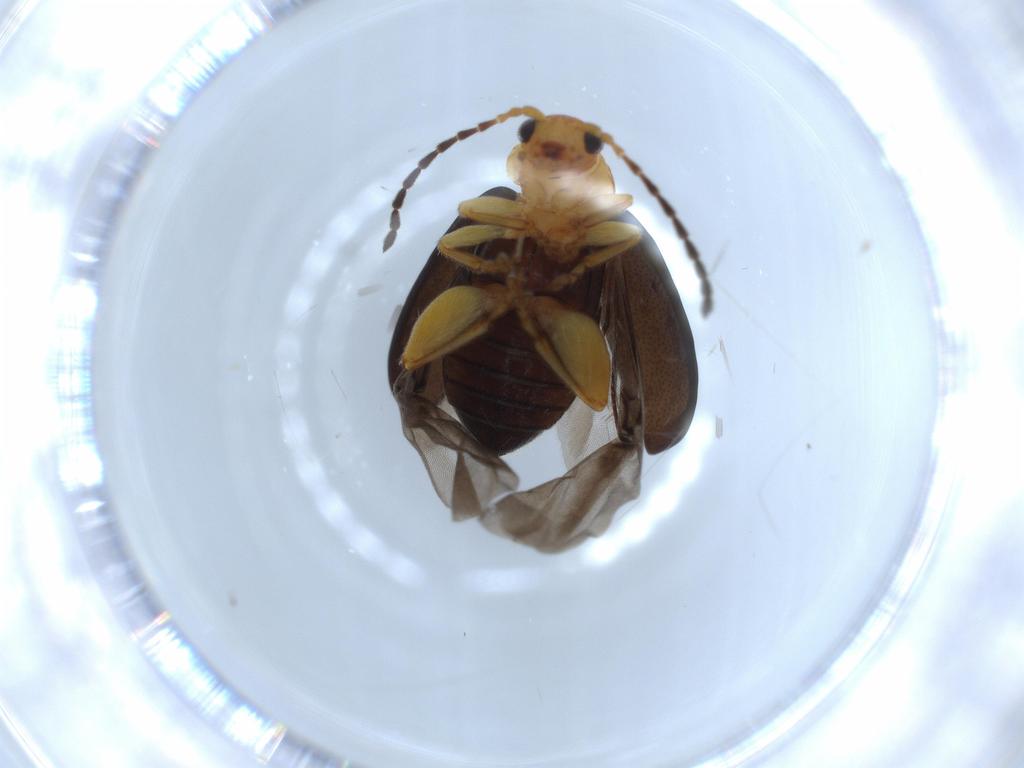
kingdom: Animalia
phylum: Arthropoda
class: Insecta
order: Coleoptera
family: Chrysomelidae
